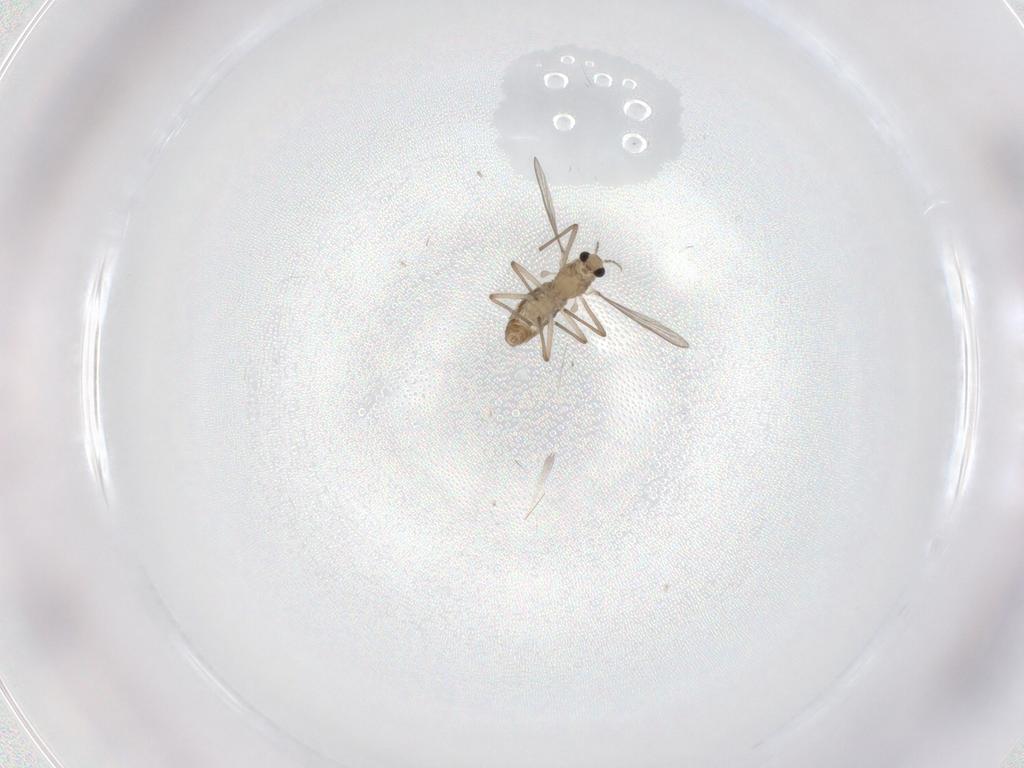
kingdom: Animalia
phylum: Arthropoda
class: Insecta
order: Diptera
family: Chironomidae
